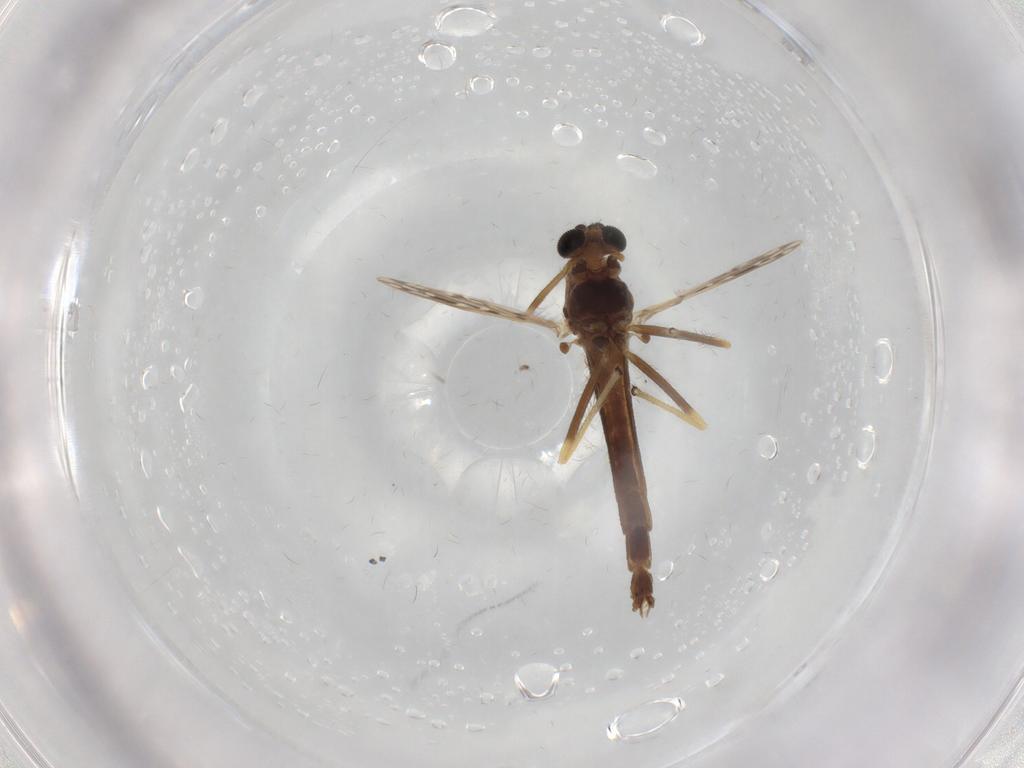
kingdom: Animalia
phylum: Arthropoda
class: Insecta
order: Diptera
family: Chironomidae
